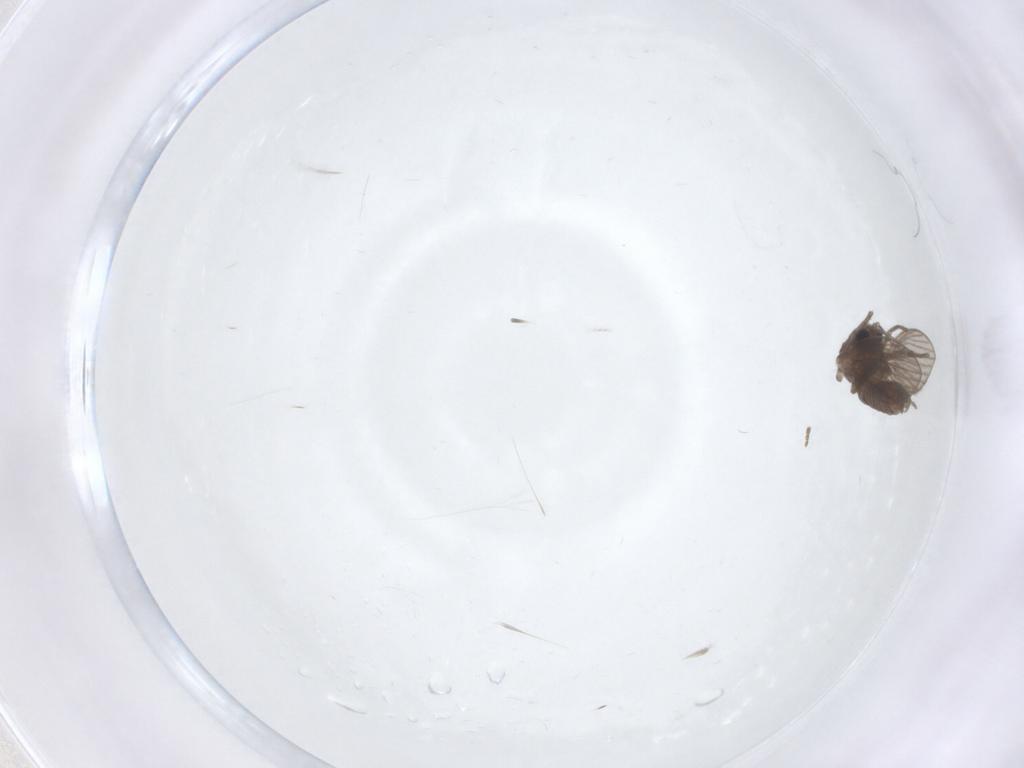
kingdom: Animalia
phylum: Arthropoda
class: Insecta
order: Diptera
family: Psychodidae
